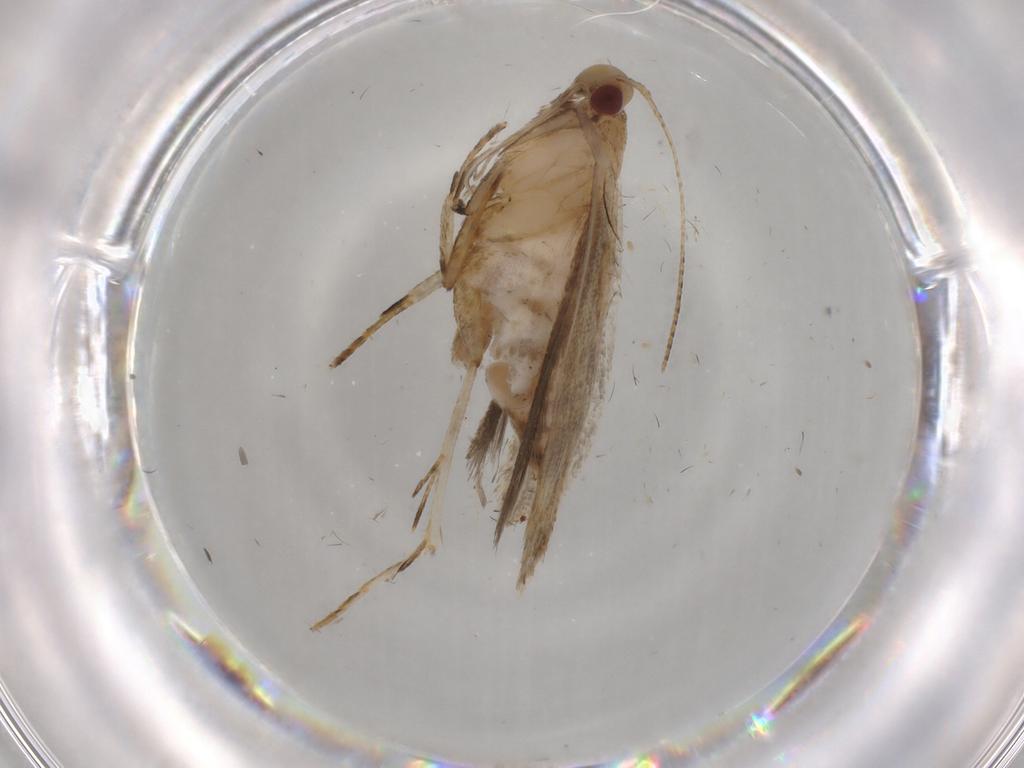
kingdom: Animalia
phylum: Arthropoda
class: Insecta
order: Lepidoptera
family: Gelechiidae
